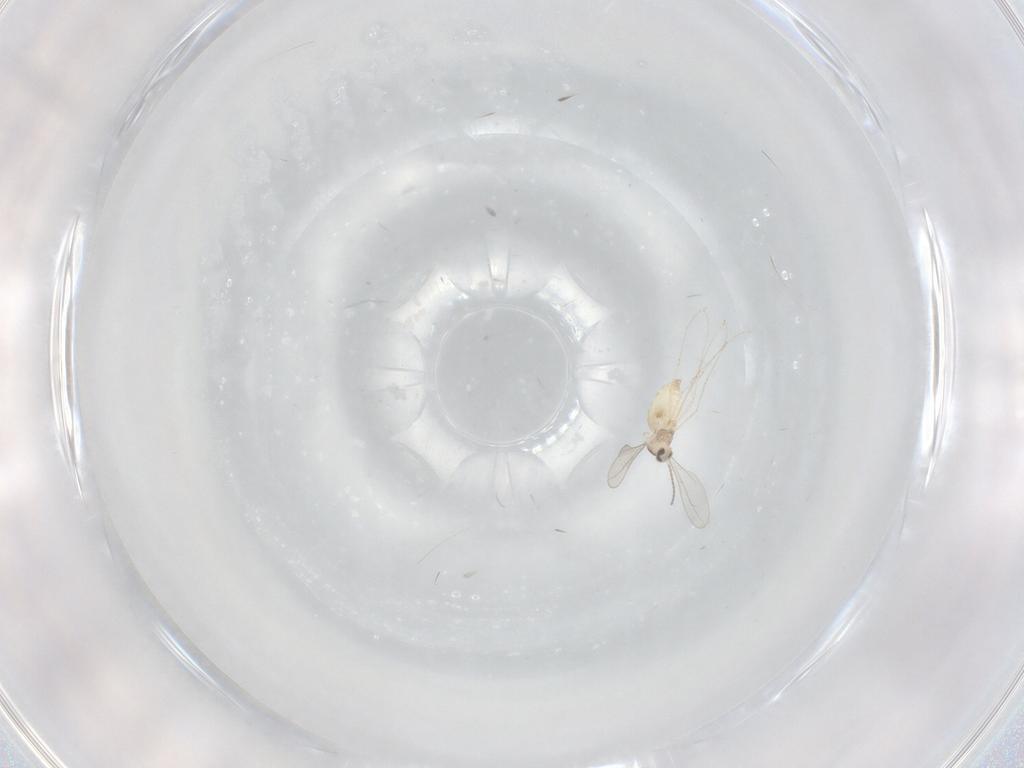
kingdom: Animalia
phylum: Arthropoda
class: Insecta
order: Diptera
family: Cecidomyiidae
